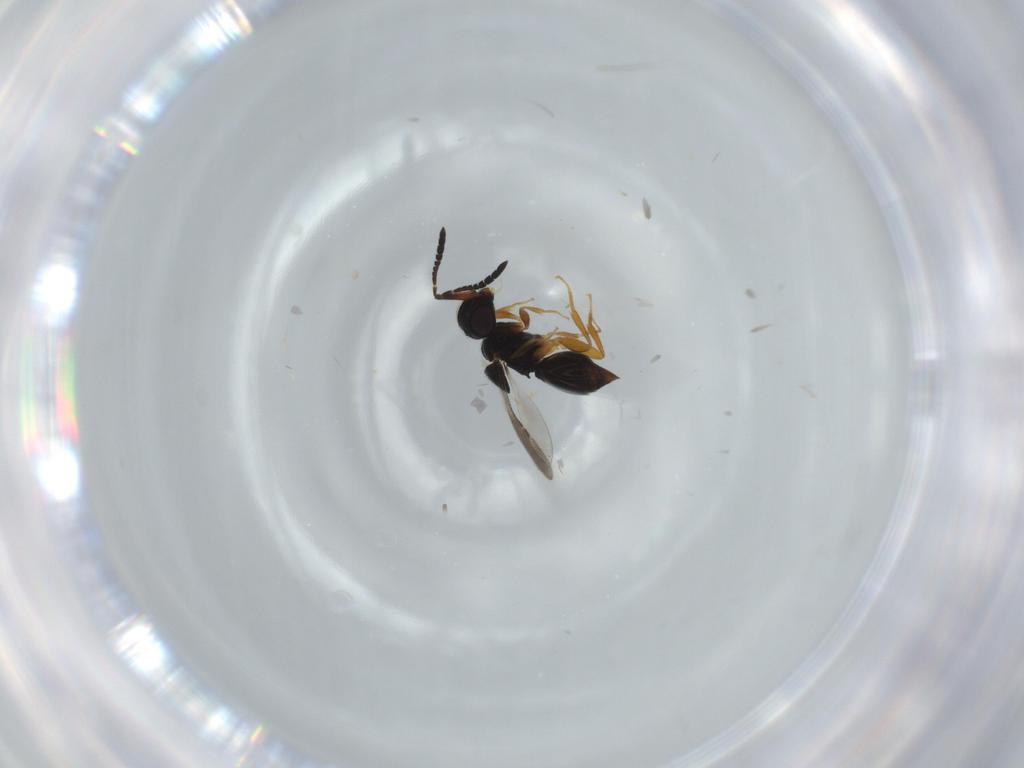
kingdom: Animalia
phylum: Arthropoda
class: Insecta
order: Hymenoptera
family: Ceraphronidae
